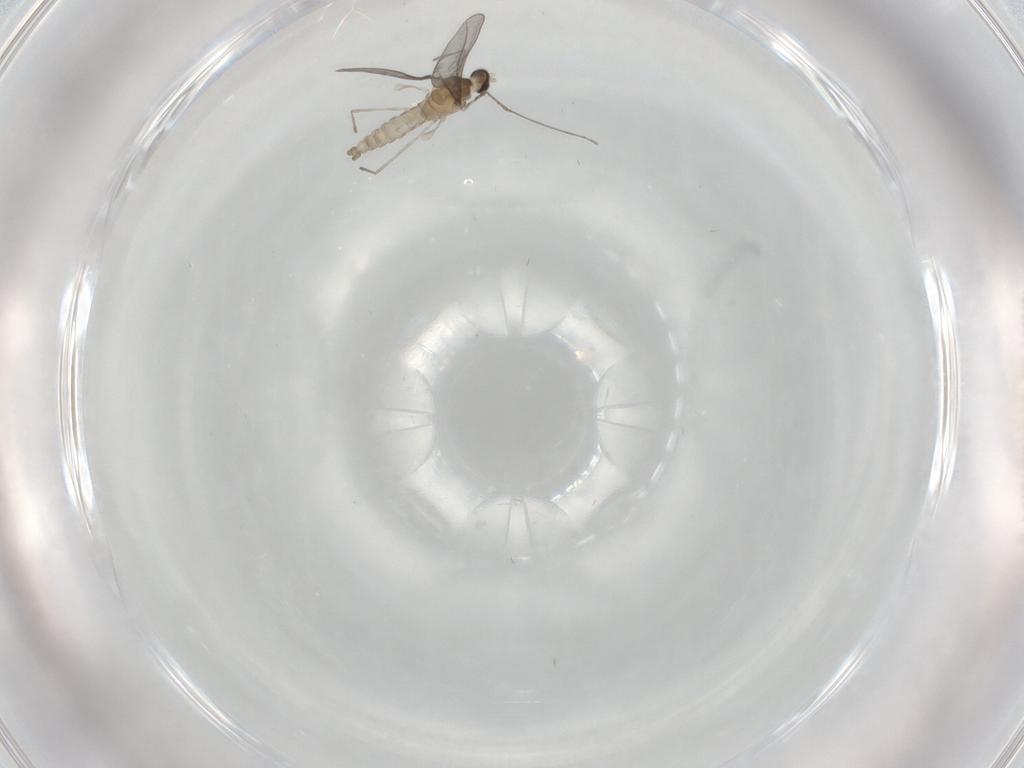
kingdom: Animalia
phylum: Arthropoda
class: Insecta
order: Diptera
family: Cecidomyiidae
